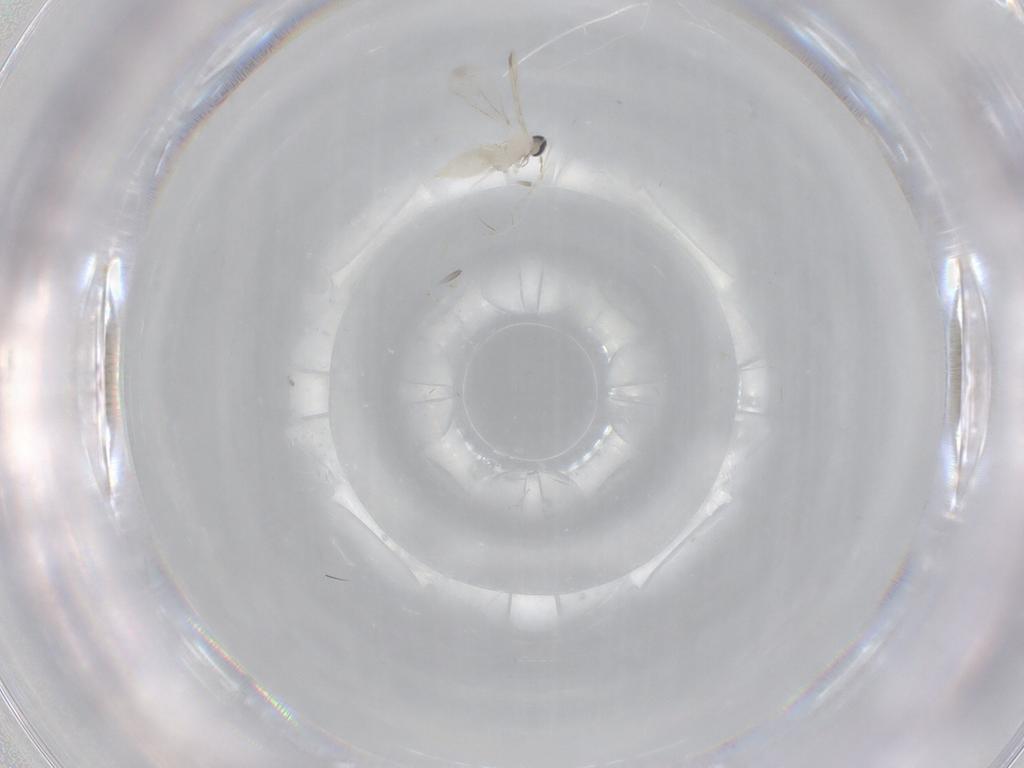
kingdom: Animalia
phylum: Arthropoda
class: Insecta
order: Diptera
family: Cecidomyiidae
